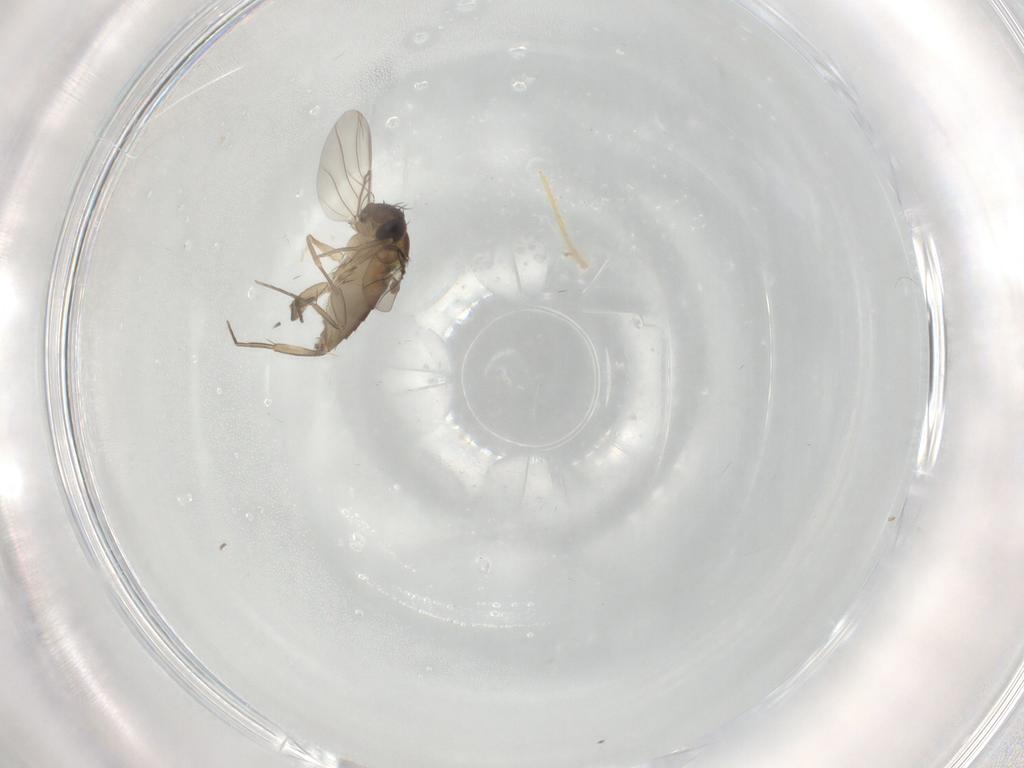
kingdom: Animalia
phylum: Arthropoda
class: Insecta
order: Diptera
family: Phoridae
